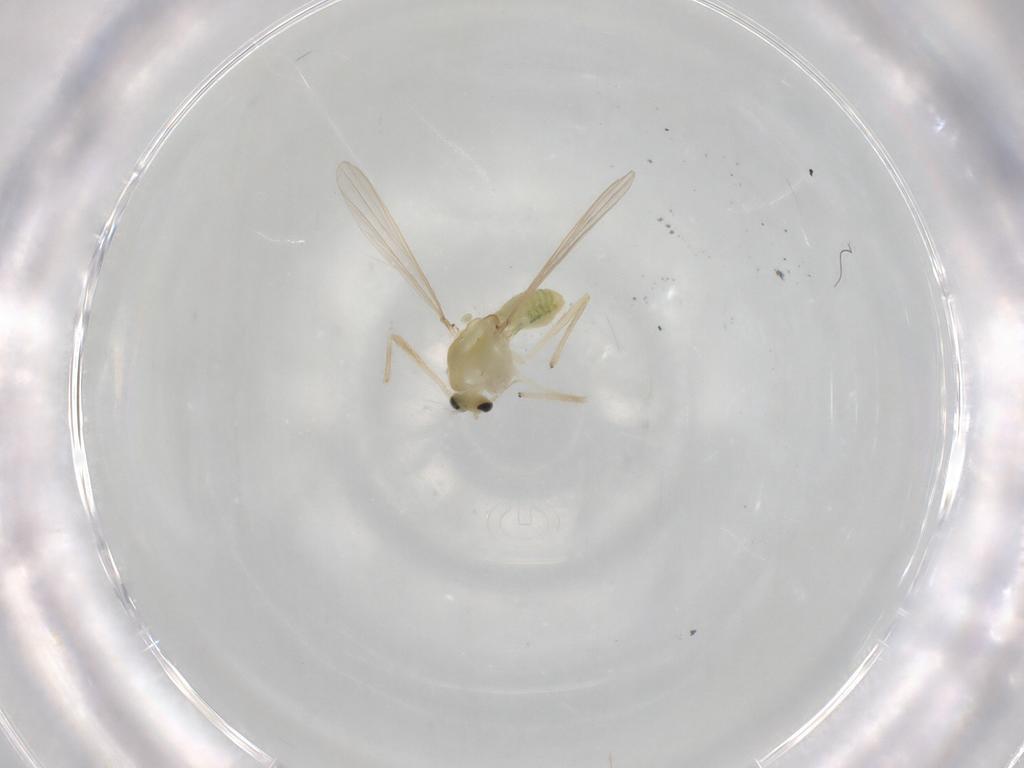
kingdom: Animalia
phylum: Arthropoda
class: Insecta
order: Diptera
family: Chironomidae
